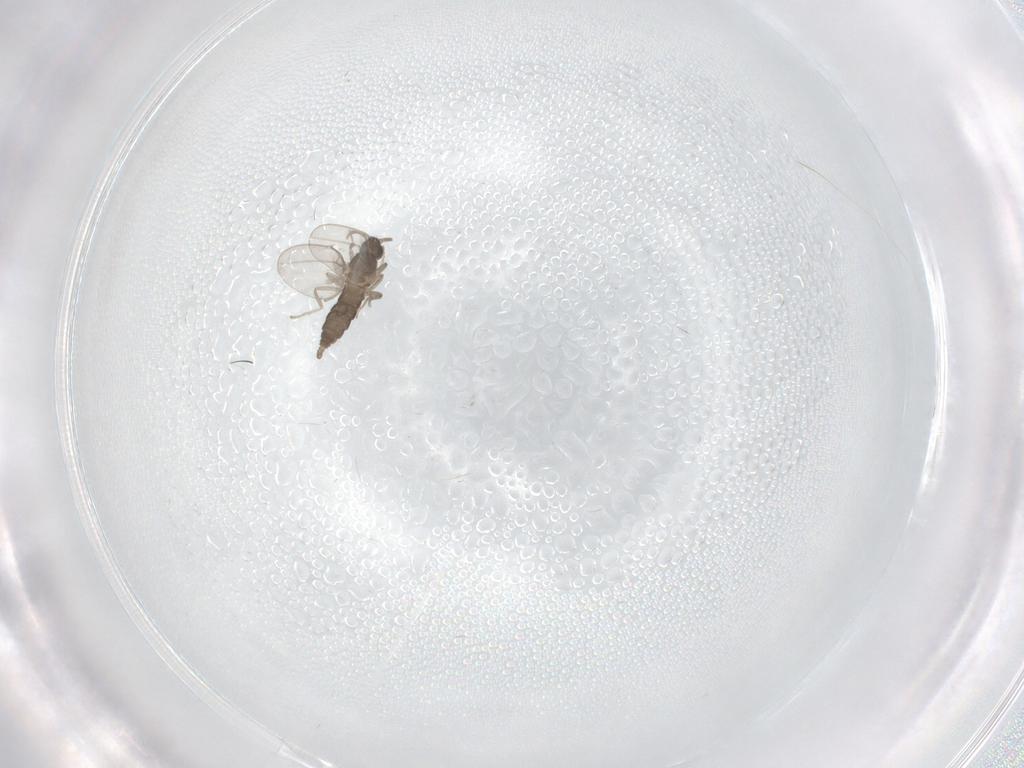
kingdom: Animalia
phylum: Arthropoda
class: Insecta
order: Diptera
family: Cecidomyiidae
